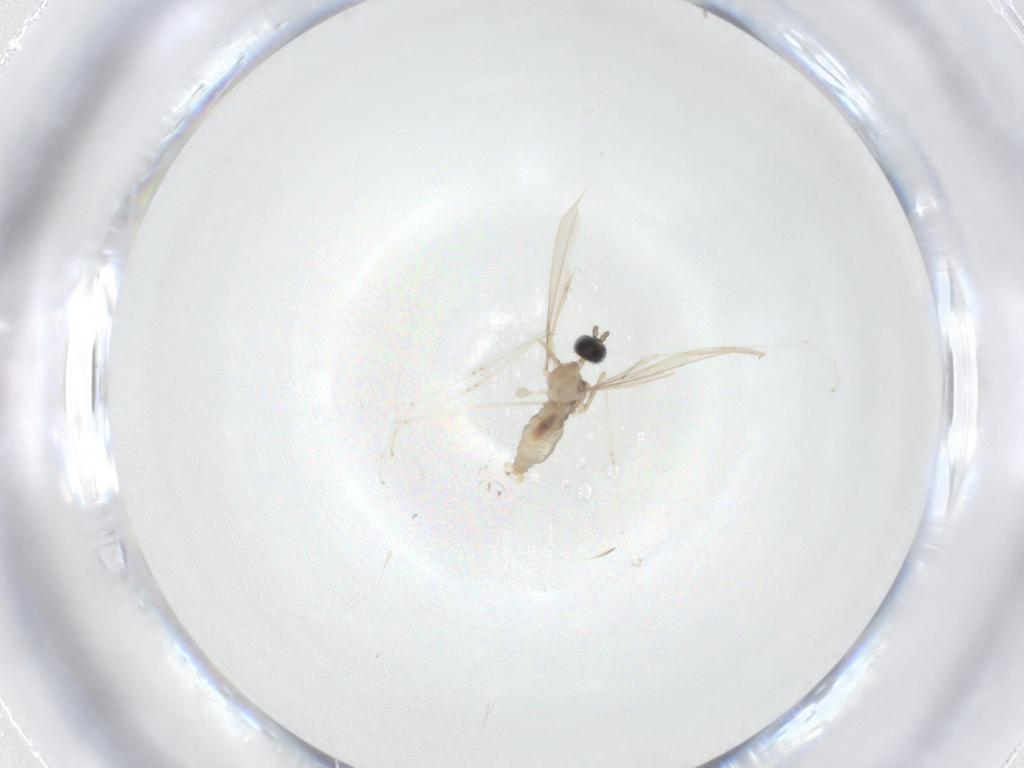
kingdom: Animalia
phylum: Arthropoda
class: Insecta
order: Diptera
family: Cecidomyiidae
